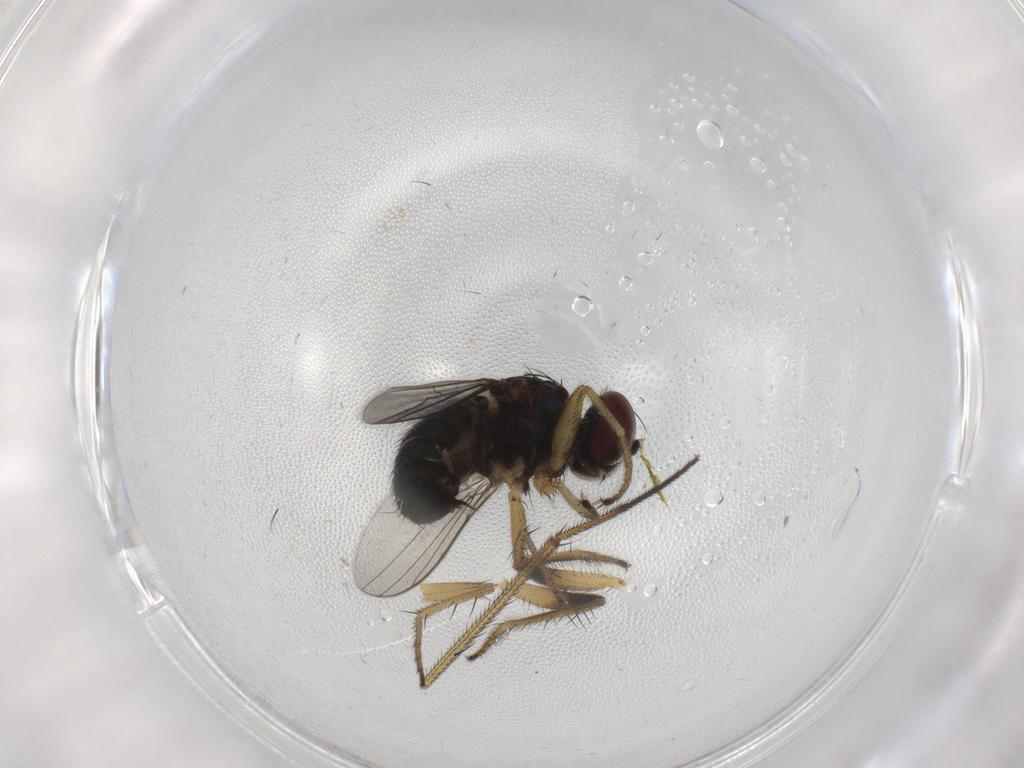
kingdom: Animalia
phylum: Arthropoda
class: Insecta
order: Diptera
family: Dolichopodidae
